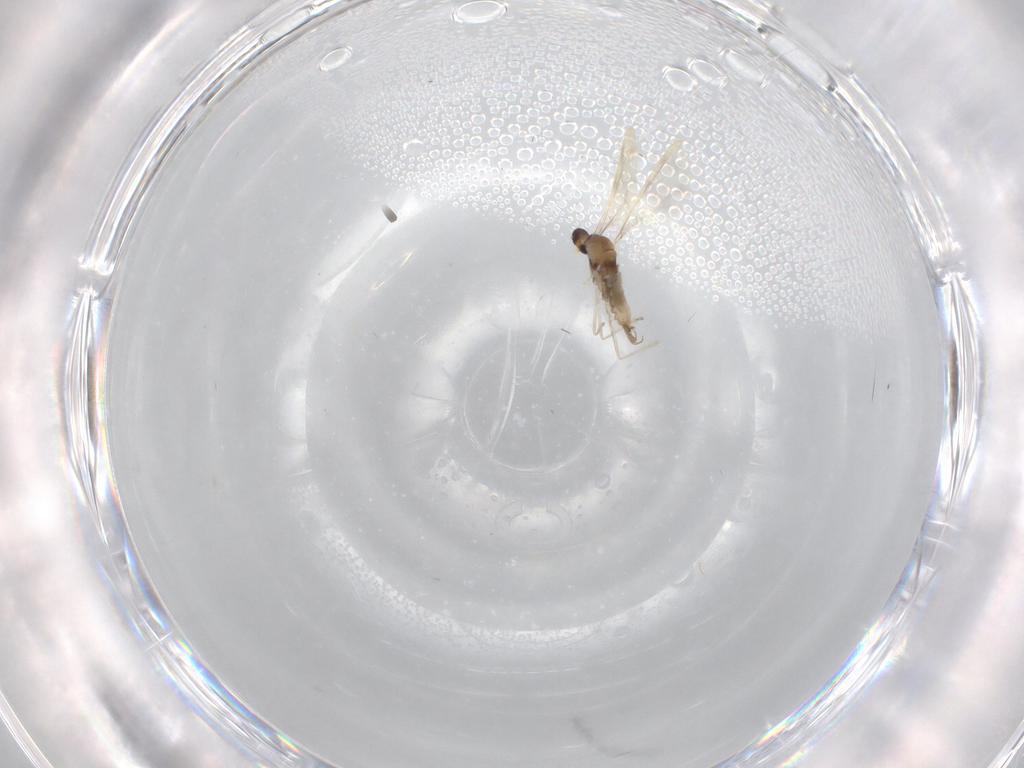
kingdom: Animalia
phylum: Arthropoda
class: Insecta
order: Diptera
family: Cecidomyiidae
